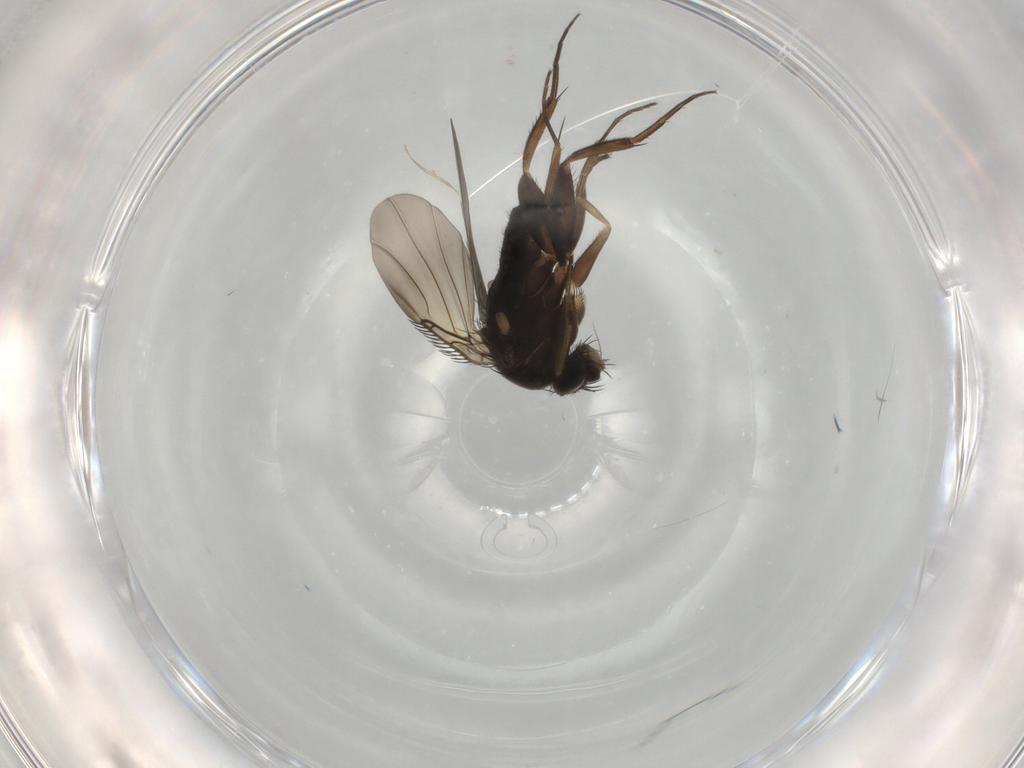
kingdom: Animalia
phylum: Arthropoda
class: Insecta
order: Diptera
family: Phoridae
